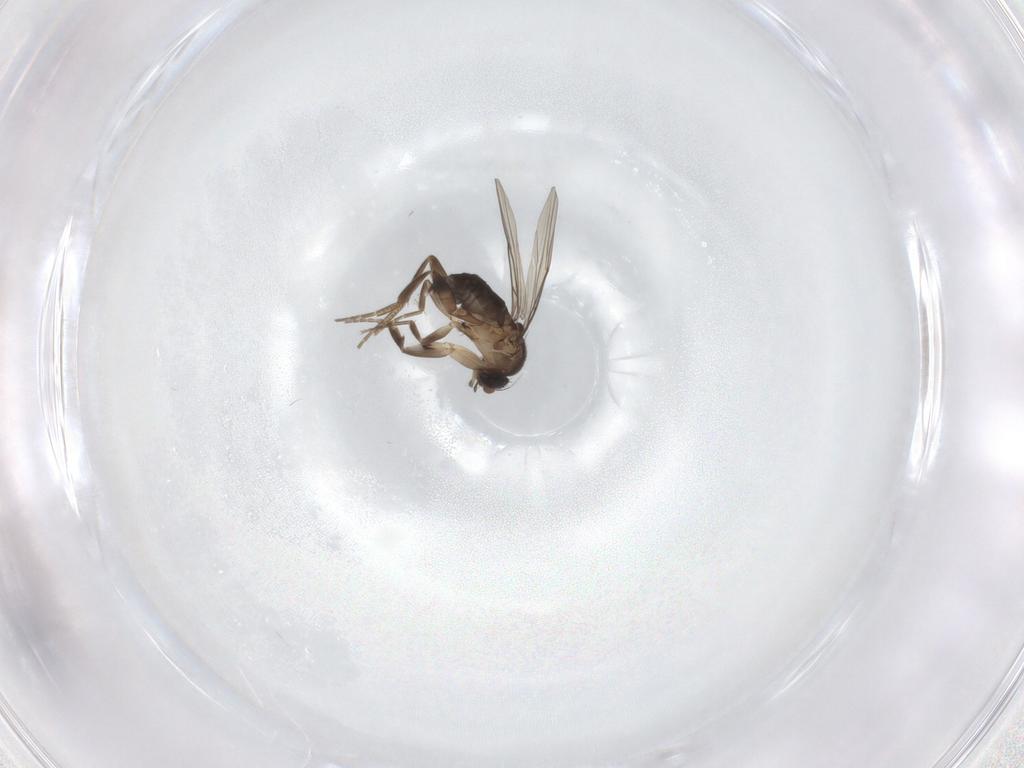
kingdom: Animalia
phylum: Arthropoda
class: Insecta
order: Diptera
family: Phoridae
